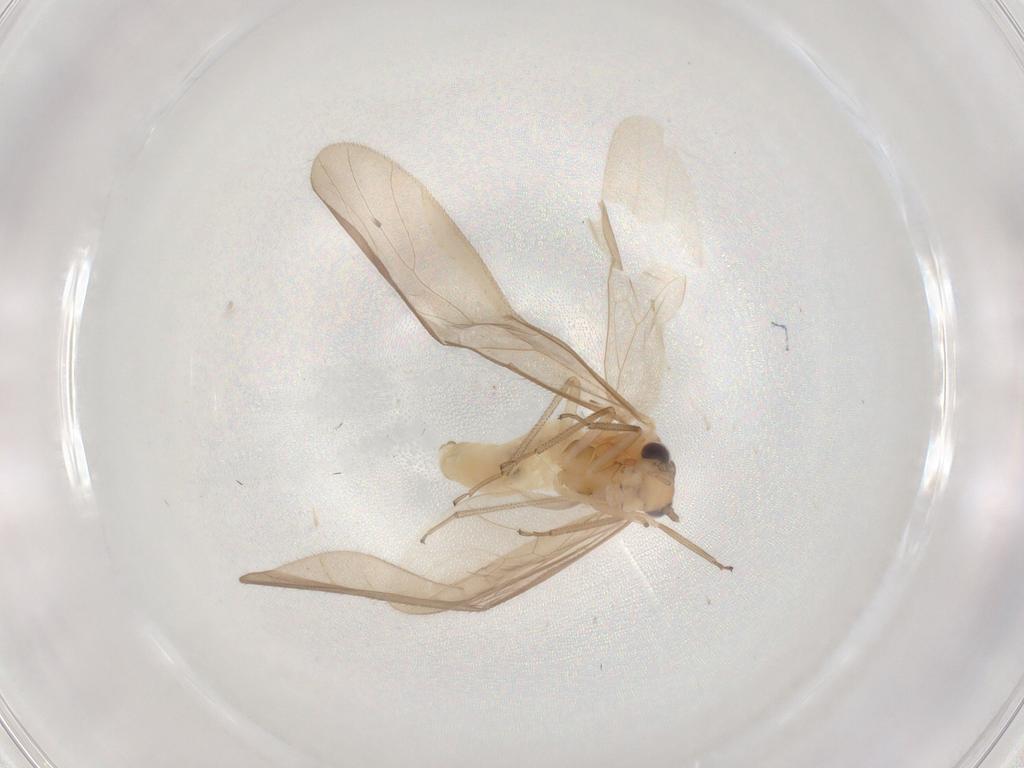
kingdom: Animalia
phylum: Arthropoda
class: Insecta
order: Psocodea
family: Caeciliusidae
